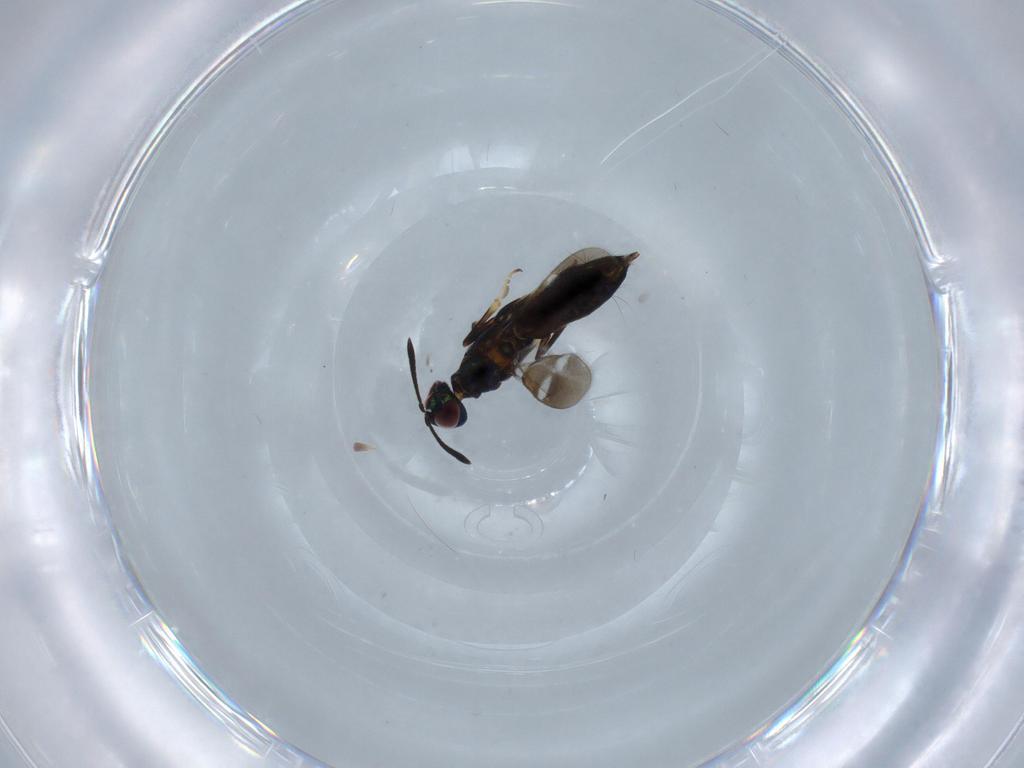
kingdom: Animalia
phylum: Arthropoda
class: Insecta
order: Hymenoptera
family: Eupelmidae
